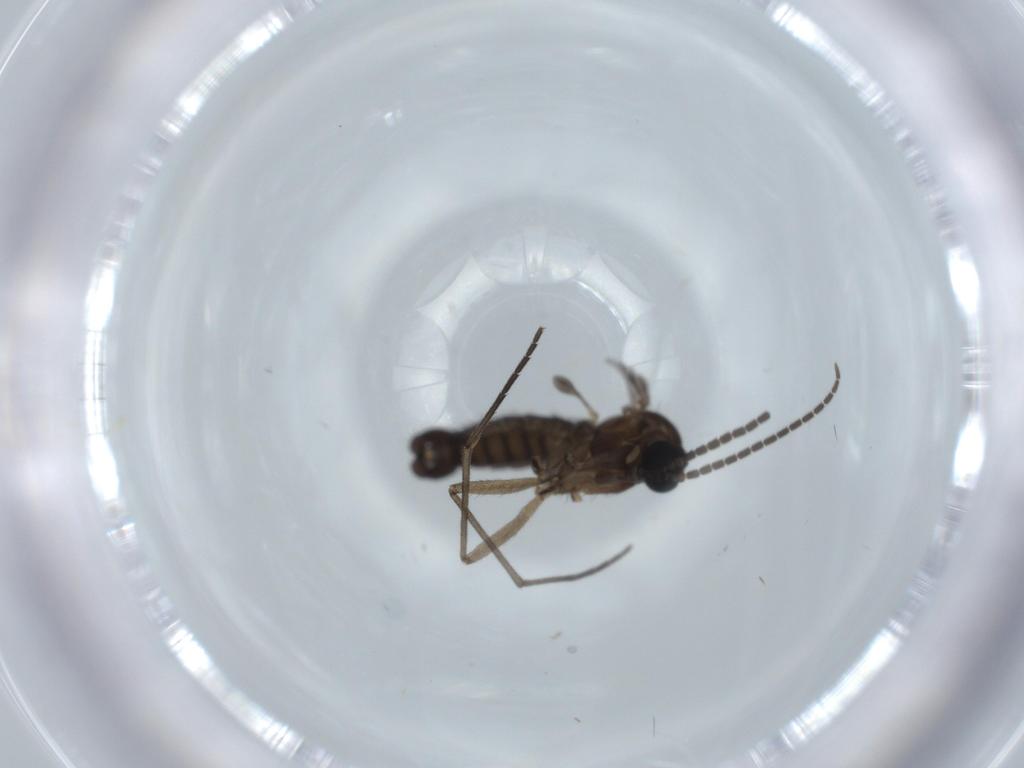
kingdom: Animalia
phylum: Arthropoda
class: Insecta
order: Diptera
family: Sciaridae
